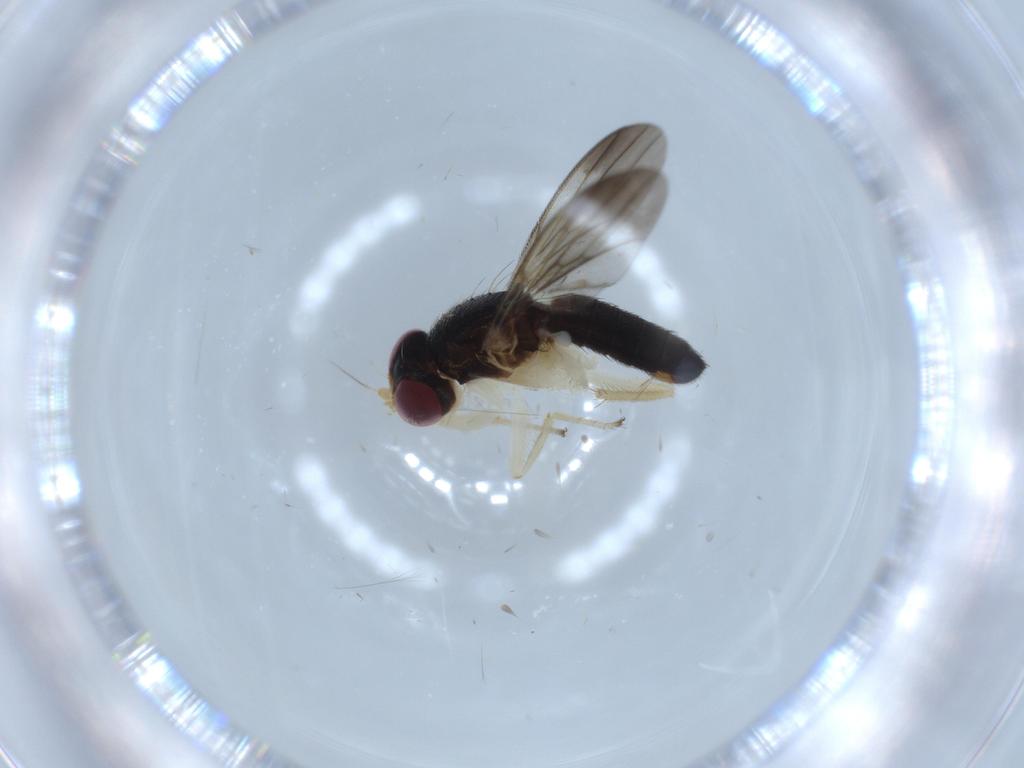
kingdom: Animalia
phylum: Arthropoda
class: Insecta
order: Diptera
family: Clusiidae
